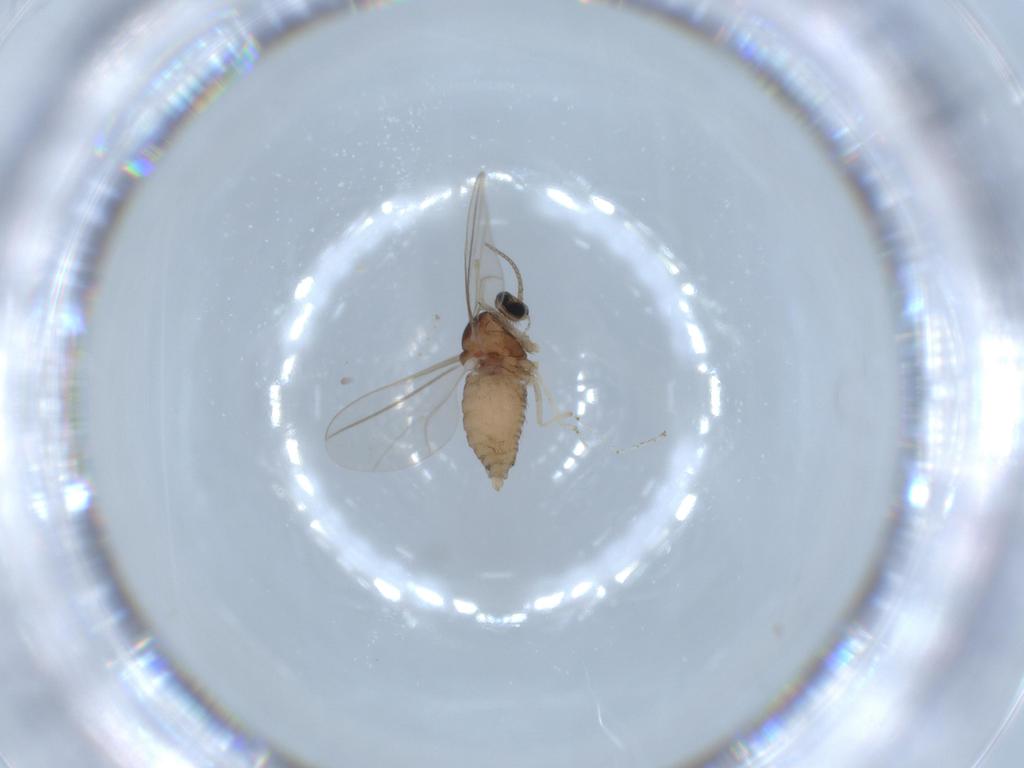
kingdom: Animalia
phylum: Arthropoda
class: Insecta
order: Diptera
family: Cecidomyiidae
